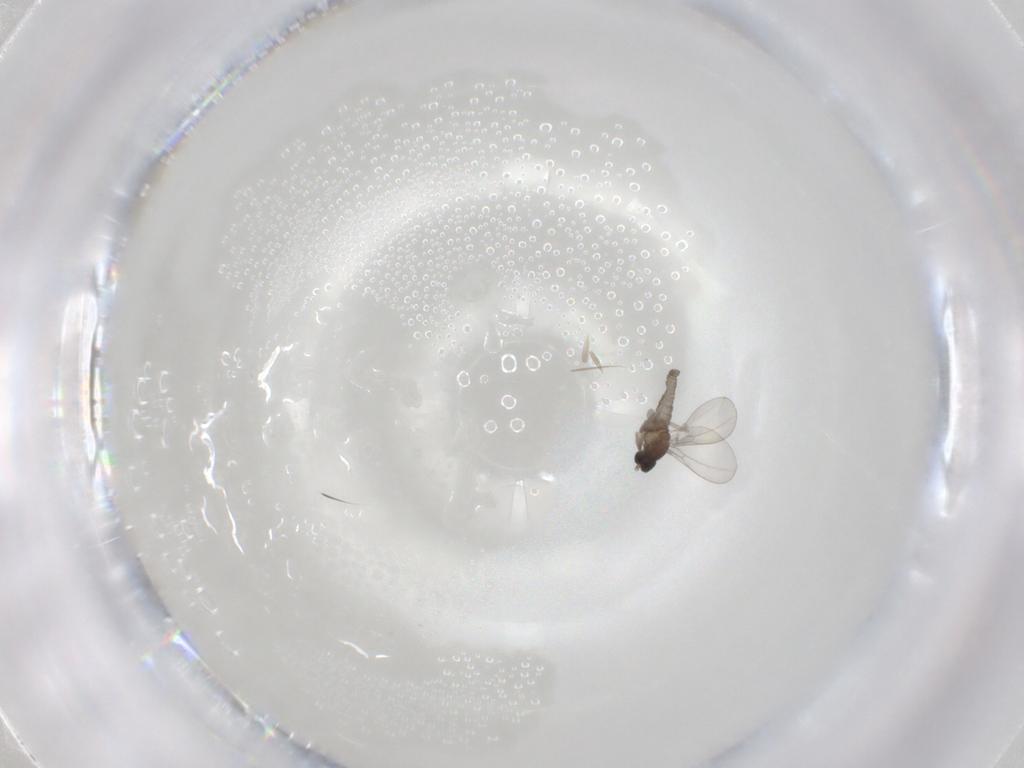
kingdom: Animalia
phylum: Arthropoda
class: Insecta
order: Diptera
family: Cecidomyiidae
